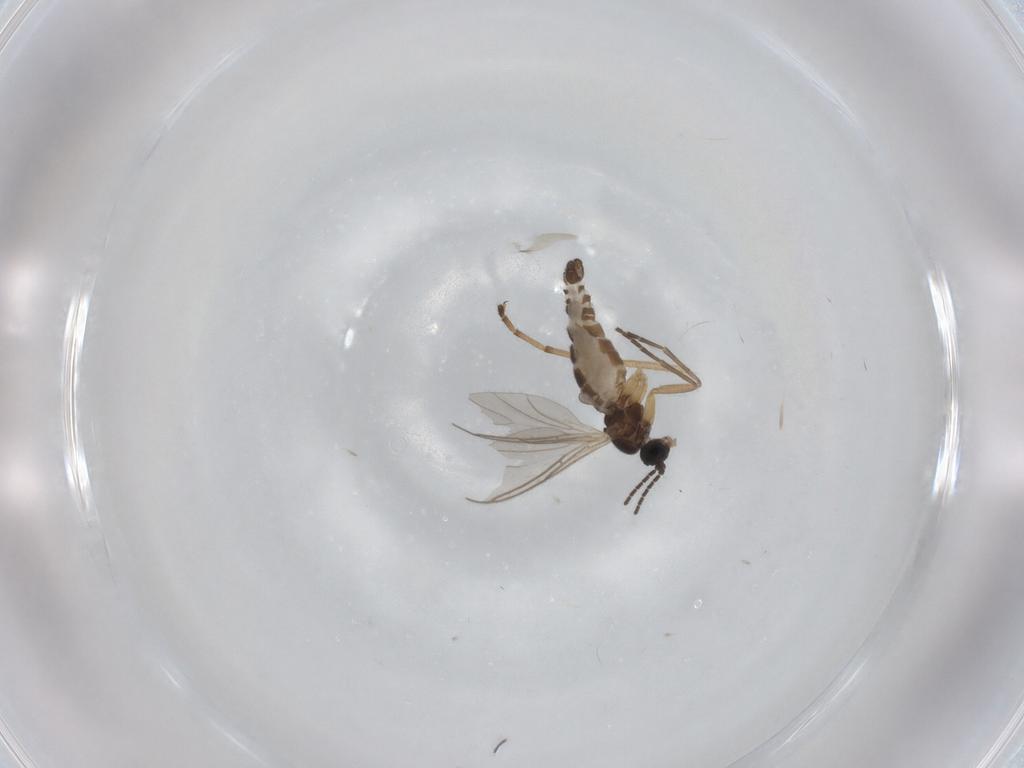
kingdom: Animalia
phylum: Arthropoda
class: Insecta
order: Diptera
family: Chironomidae
